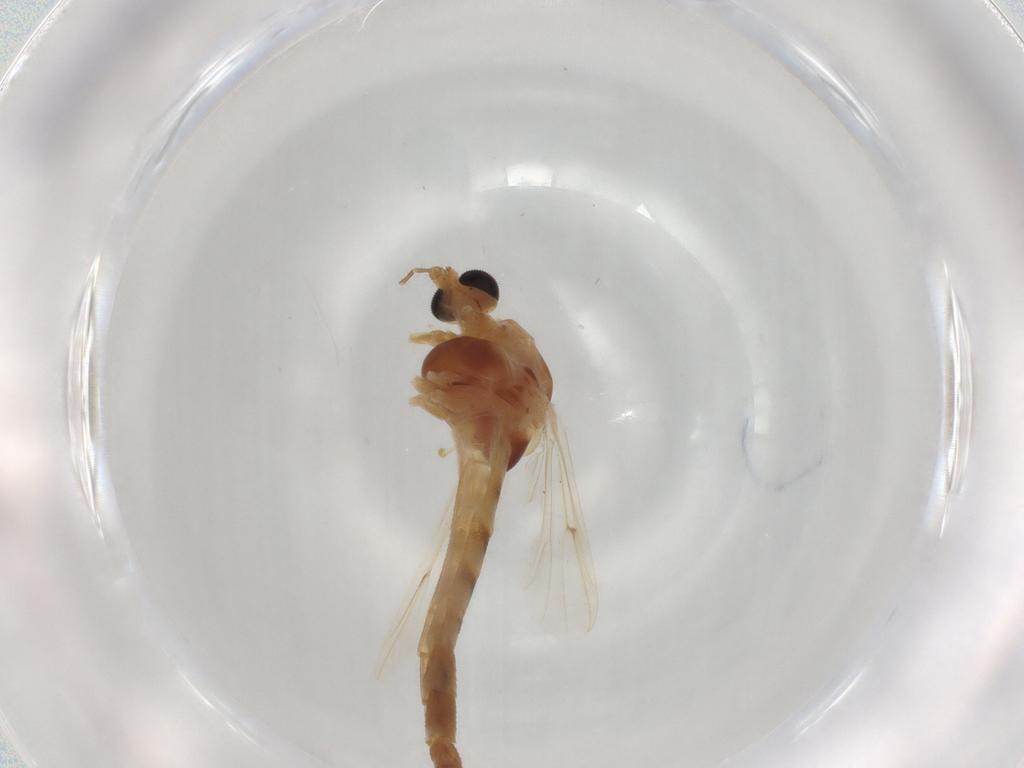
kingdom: Animalia
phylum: Arthropoda
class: Insecta
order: Diptera
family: Chironomidae
